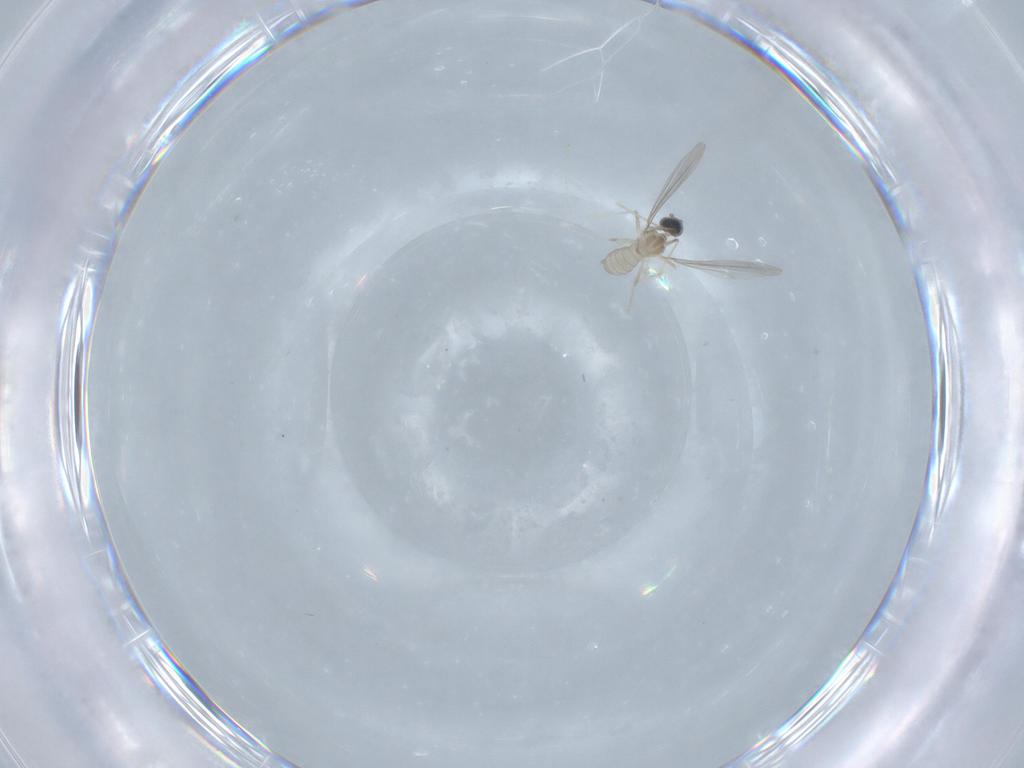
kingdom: Animalia
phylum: Arthropoda
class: Insecta
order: Diptera
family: Cecidomyiidae
